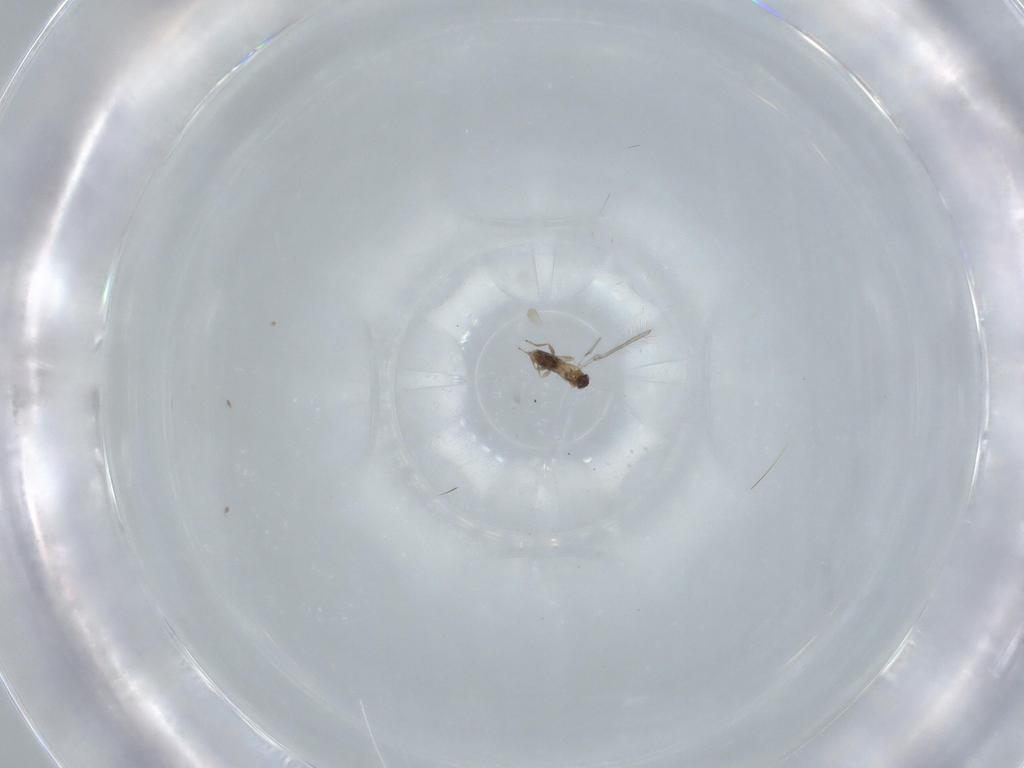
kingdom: Animalia
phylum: Arthropoda
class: Insecta
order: Hymenoptera
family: Mymaridae
